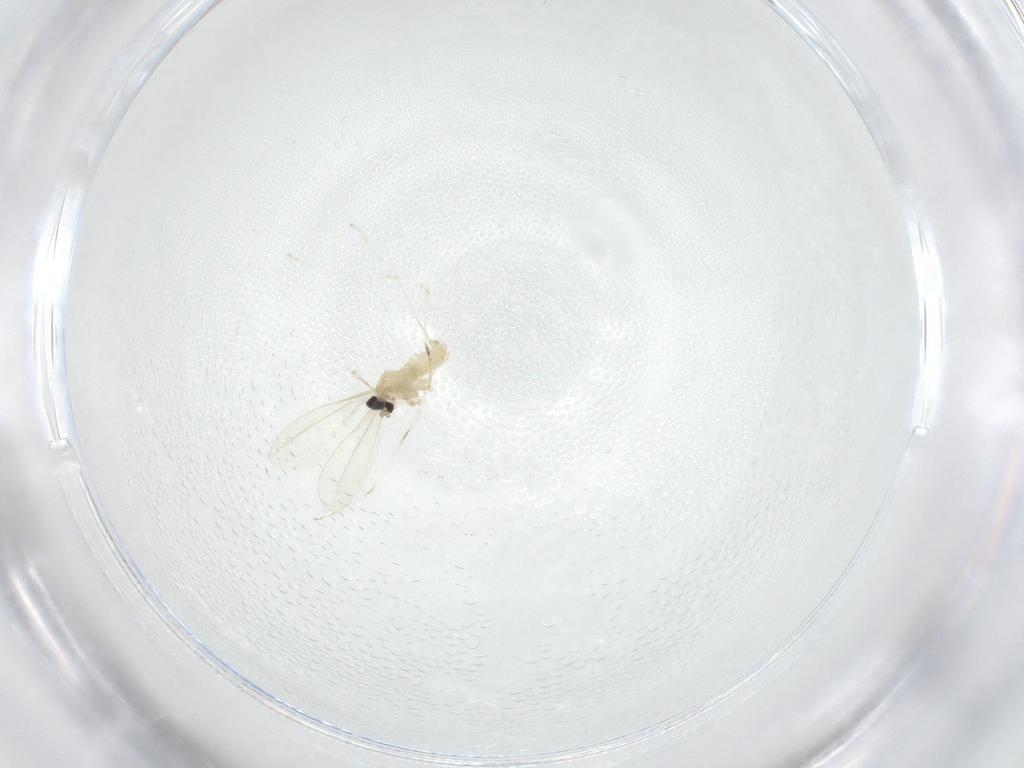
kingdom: Animalia
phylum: Arthropoda
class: Insecta
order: Diptera
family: Cecidomyiidae
